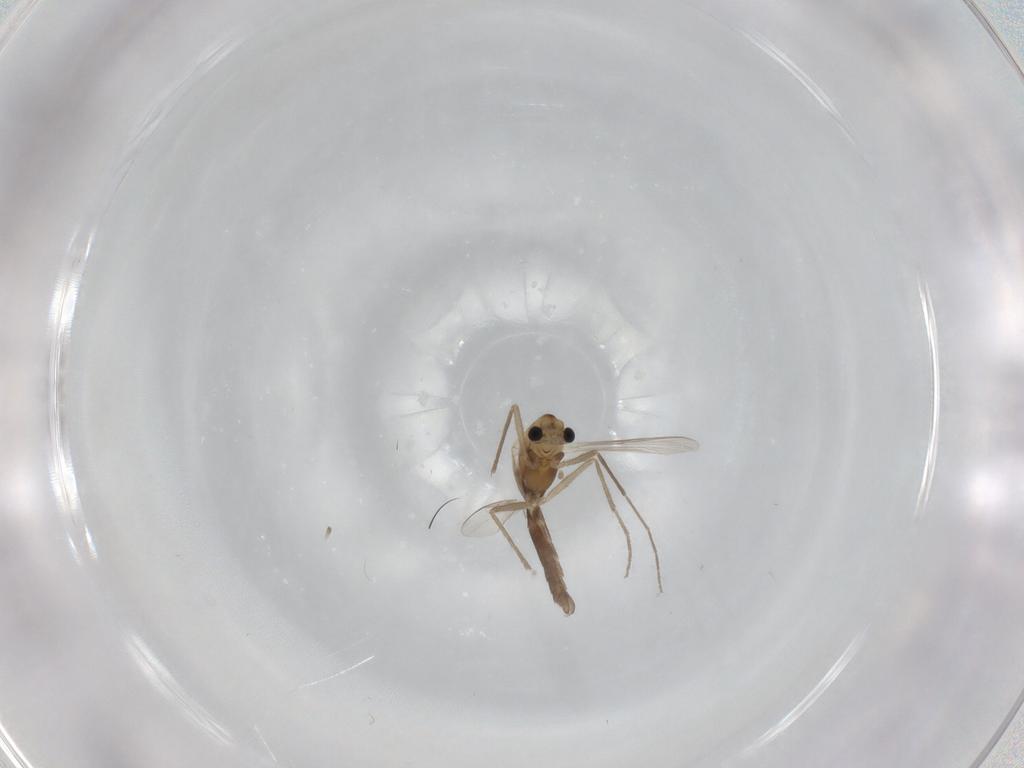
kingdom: Animalia
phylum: Arthropoda
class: Insecta
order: Diptera
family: Chironomidae
